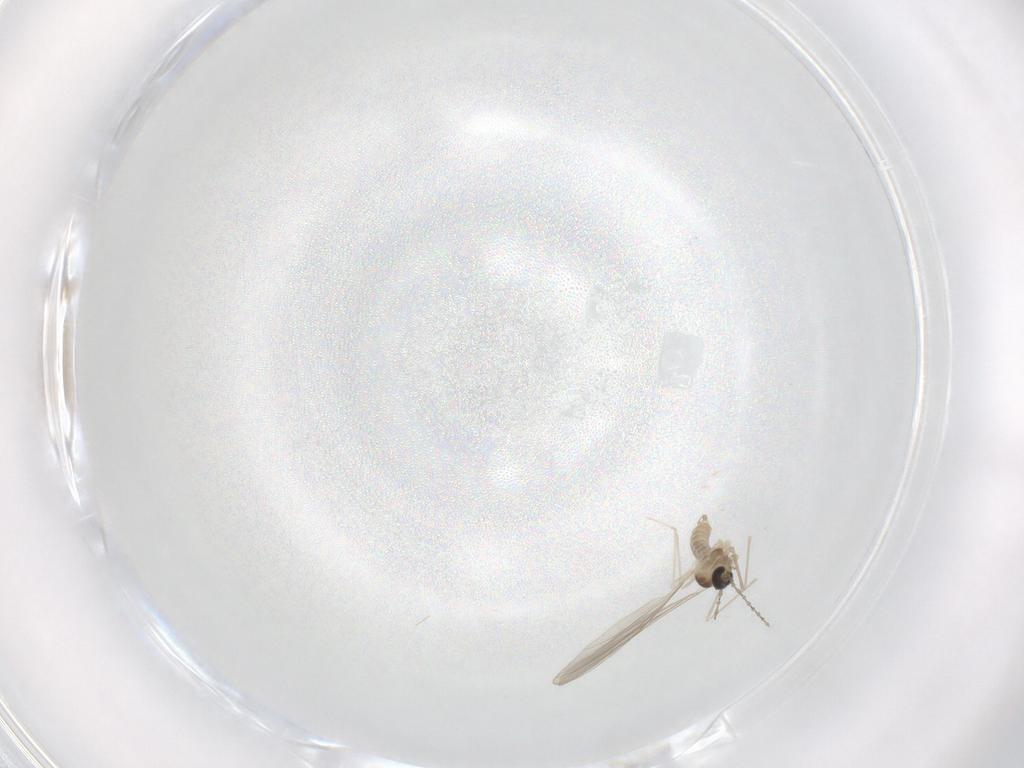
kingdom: Animalia
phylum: Arthropoda
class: Insecta
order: Diptera
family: Cecidomyiidae
